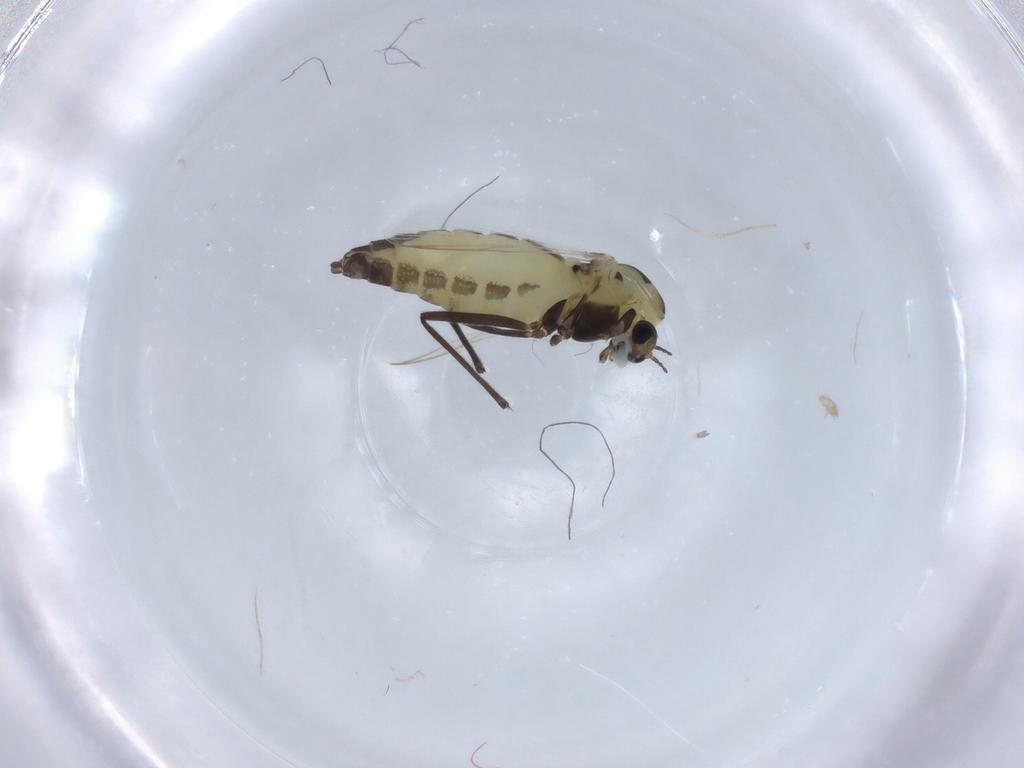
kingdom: Animalia
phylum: Arthropoda
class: Insecta
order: Diptera
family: Chironomidae
